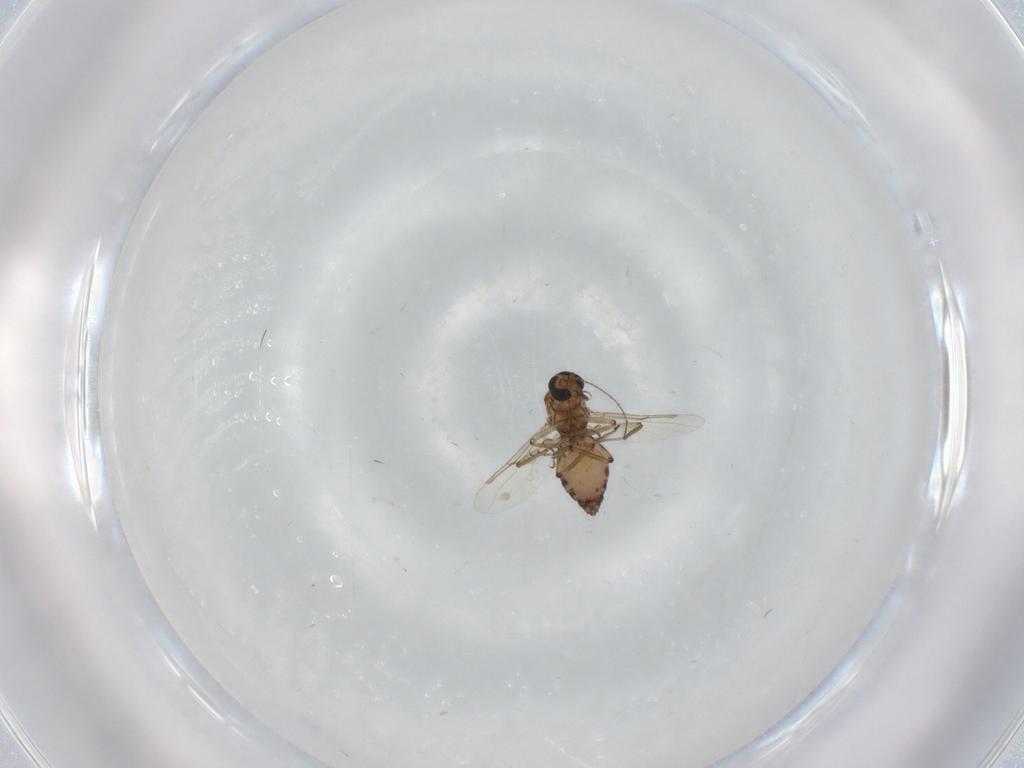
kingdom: Animalia
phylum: Arthropoda
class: Insecta
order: Diptera
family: Ceratopogonidae
